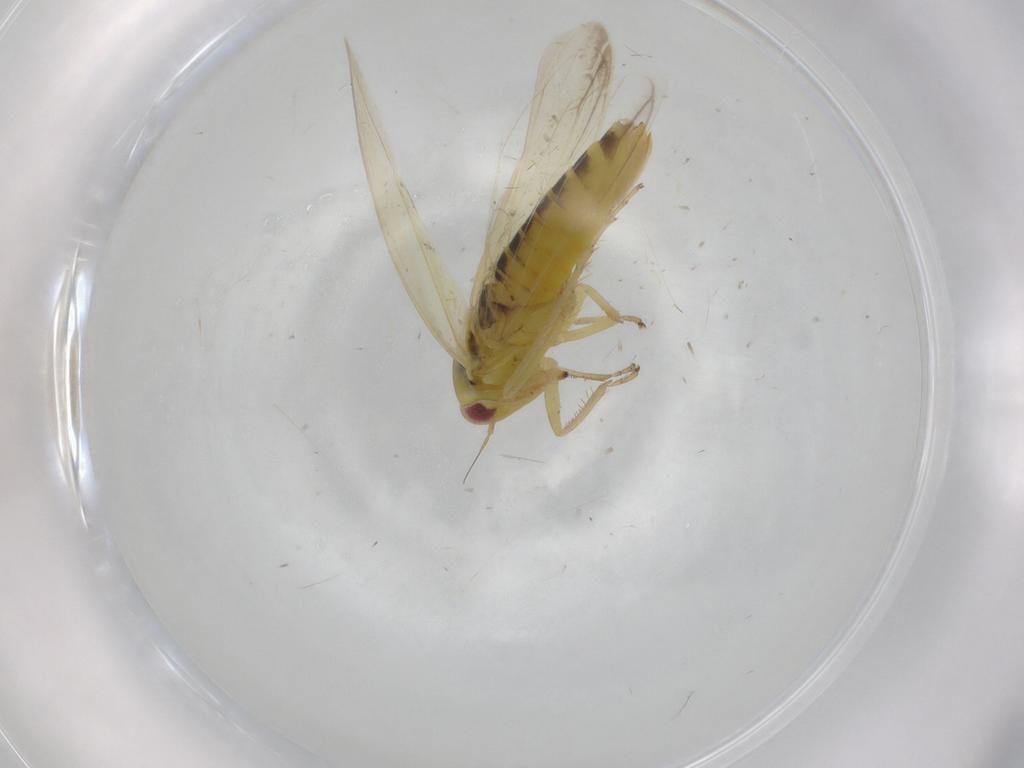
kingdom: Animalia
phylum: Arthropoda
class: Insecta
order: Hemiptera
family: Cicadellidae
